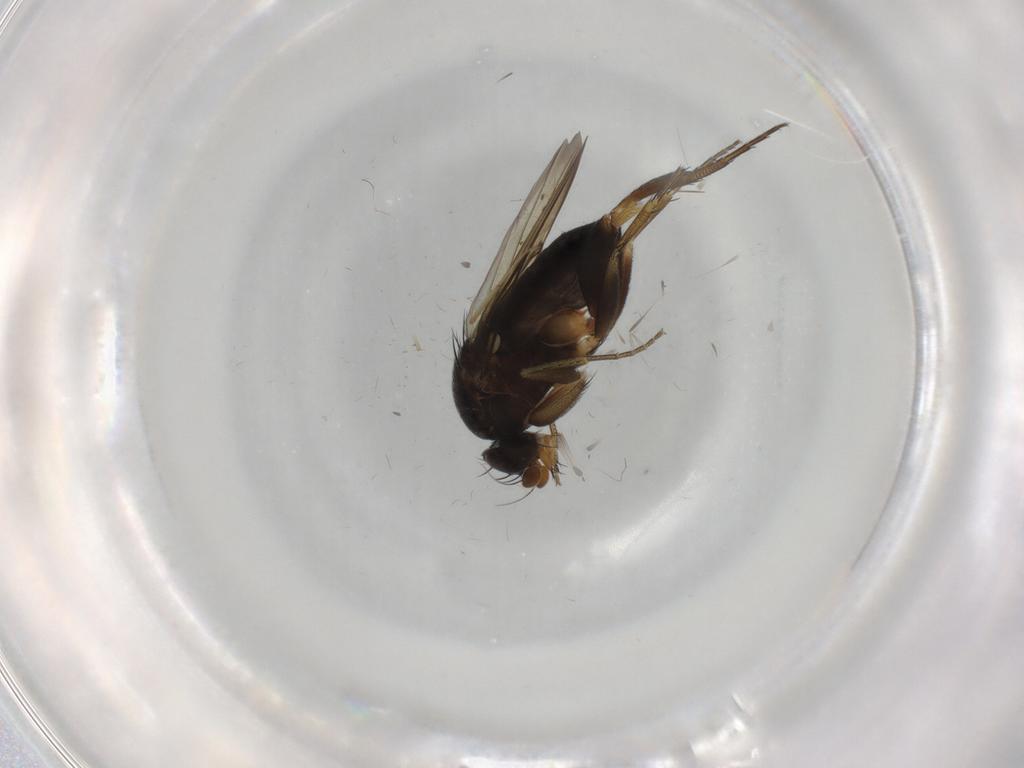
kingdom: Animalia
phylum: Arthropoda
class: Insecta
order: Diptera
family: Phoridae
